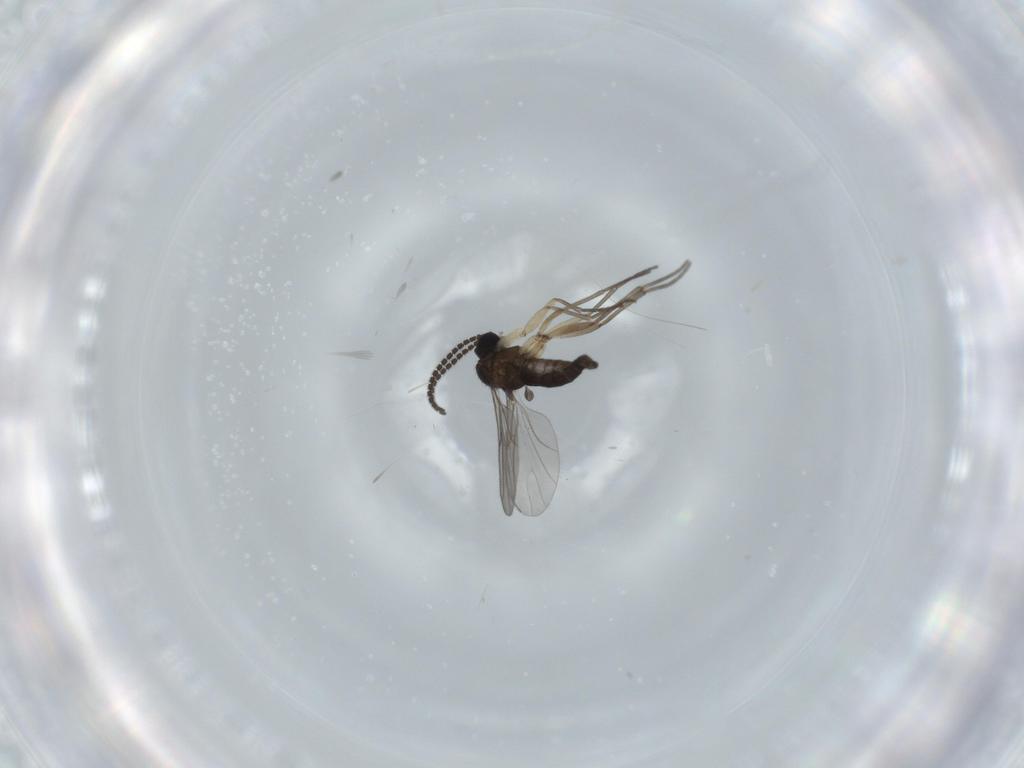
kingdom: Animalia
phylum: Arthropoda
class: Insecta
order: Diptera
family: Sciaridae
